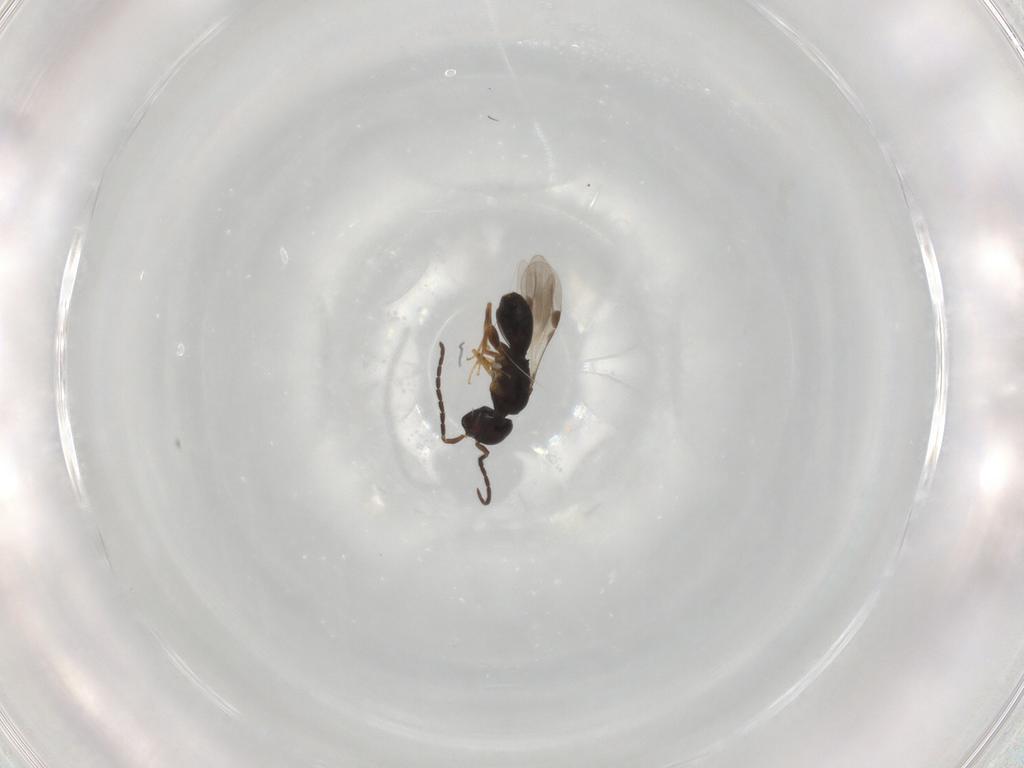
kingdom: Animalia
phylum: Arthropoda
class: Insecta
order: Hymenoptera
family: Megaspilidae
